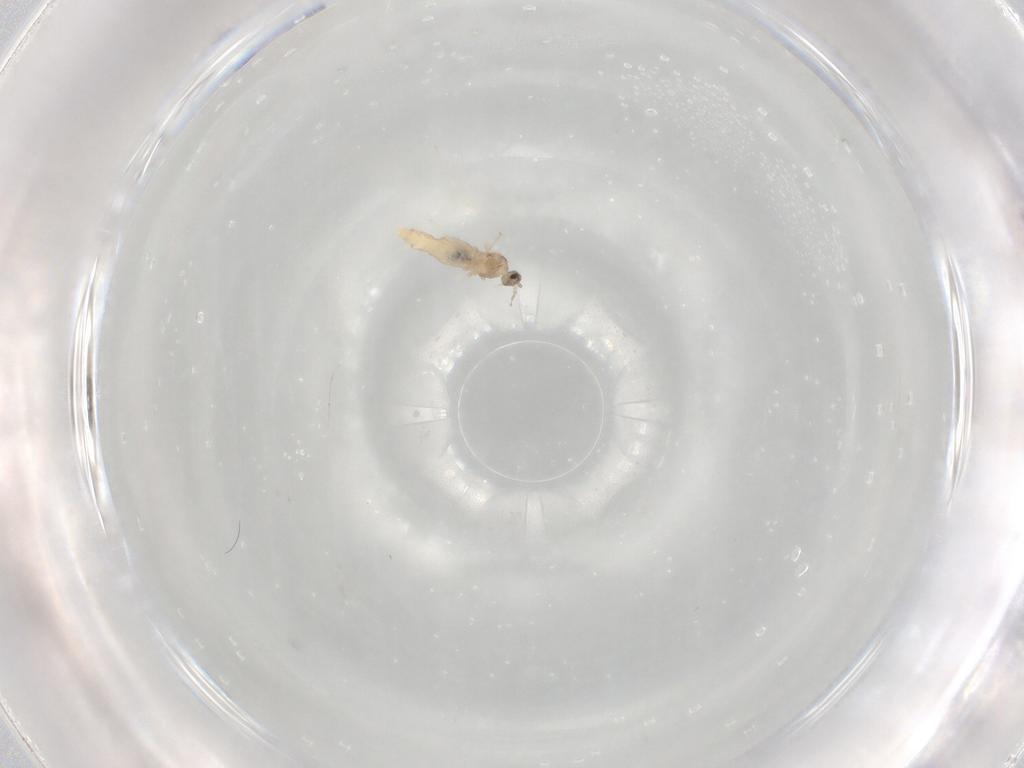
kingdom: Animalia
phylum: Arthropoda
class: Insecta
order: Diptera
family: Cecidomyiidae
